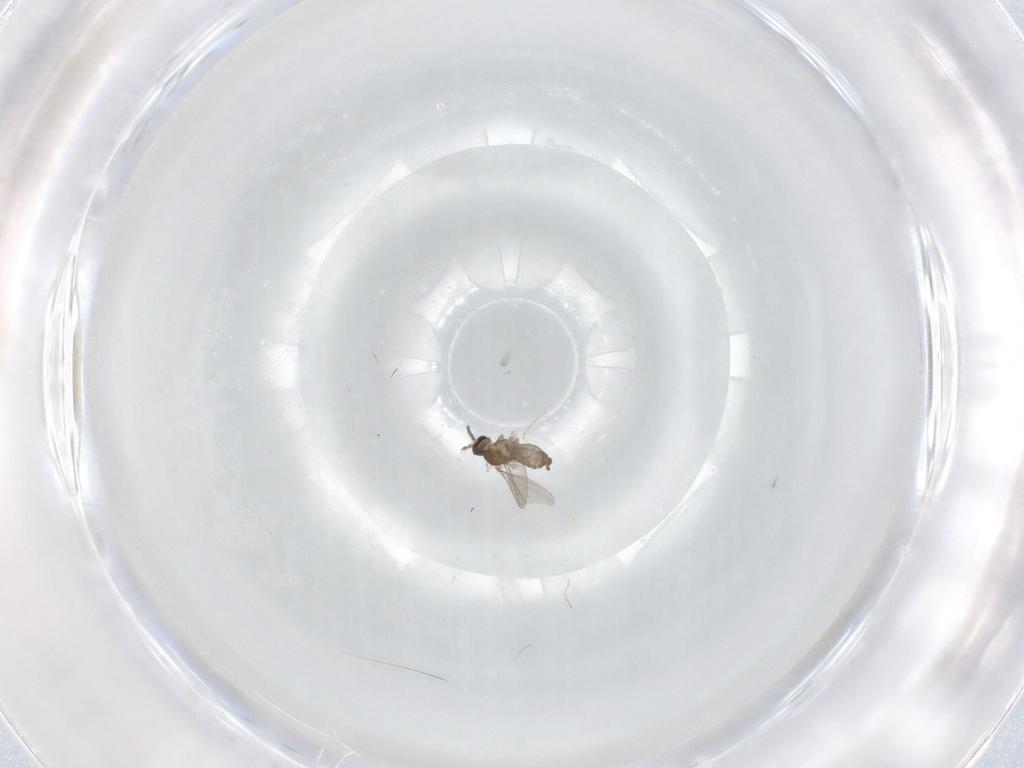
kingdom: Animalia
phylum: Arthropoda
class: Insecta
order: Diptera
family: Cecidomyiidae
